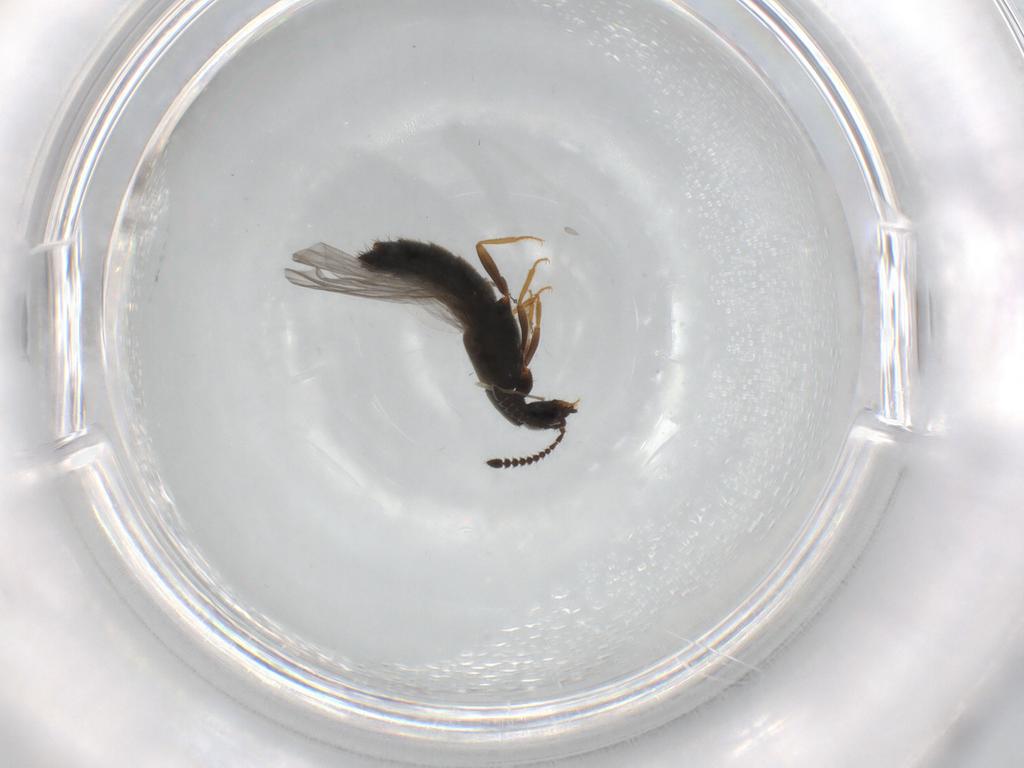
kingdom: Animalia
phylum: Arthropoda
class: Insecta
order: Coleoptera
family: Staphylinidae
